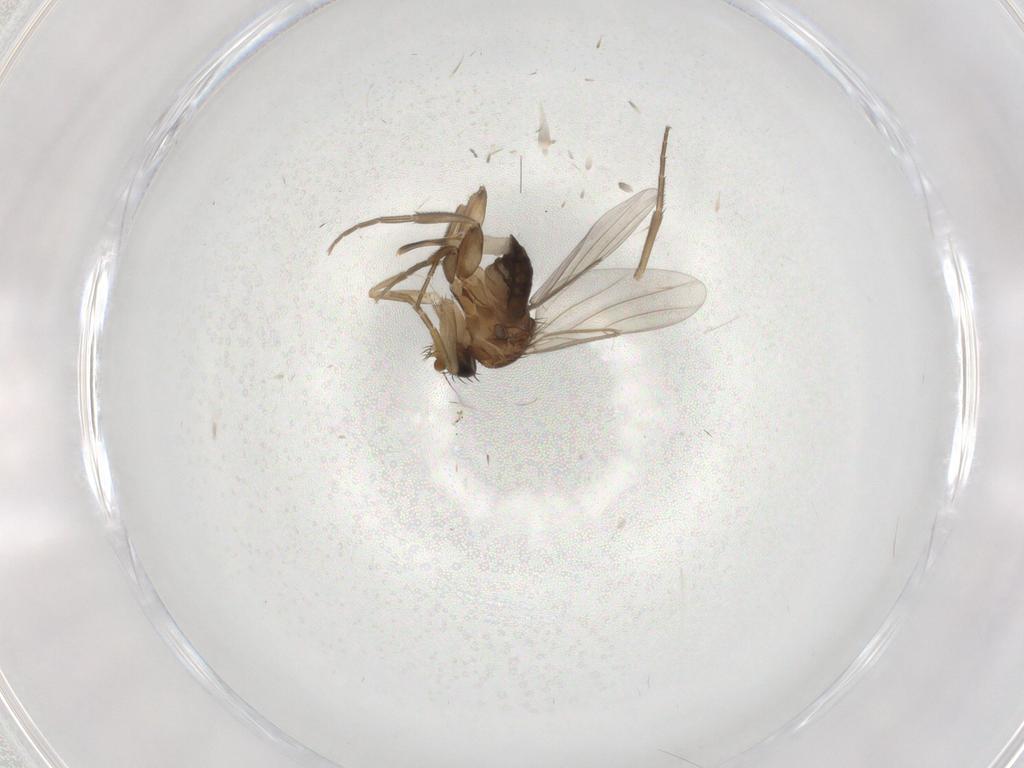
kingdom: Animalia
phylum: Arthropoda
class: Insecta
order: Diptera
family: Phoridae
